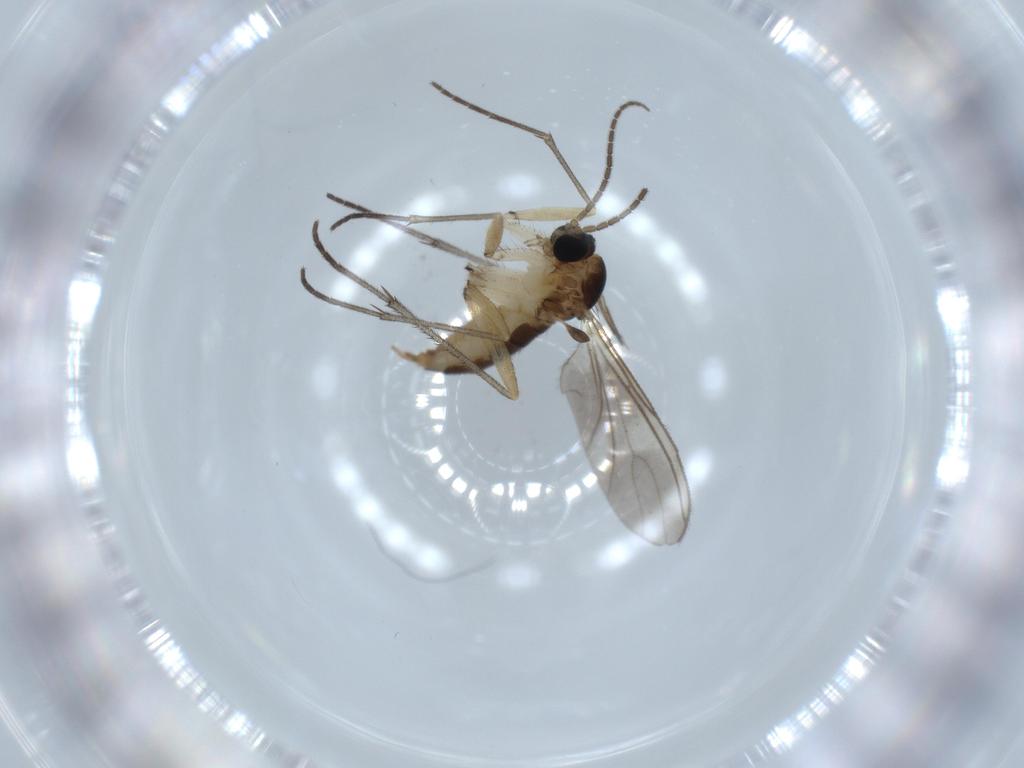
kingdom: Animalia
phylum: Arthropoda
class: Insecta
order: Diptera
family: Sciaridae
